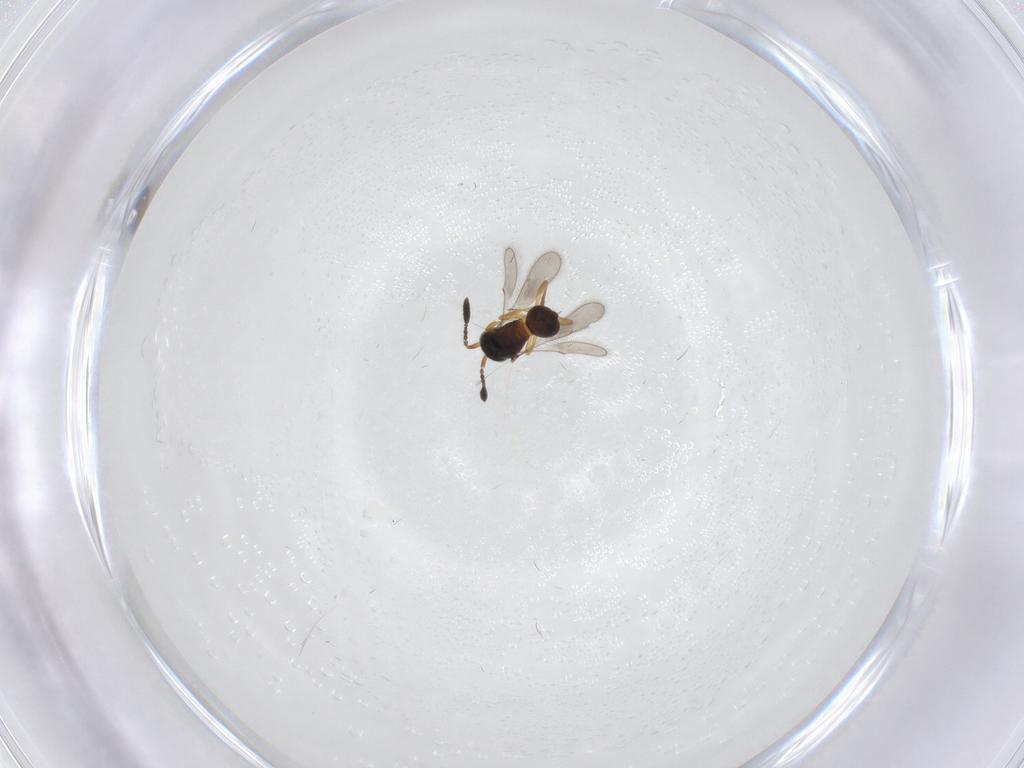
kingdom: Animalia
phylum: Arthropoda
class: Insecta
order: Hymenoptera
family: Scelionidae
